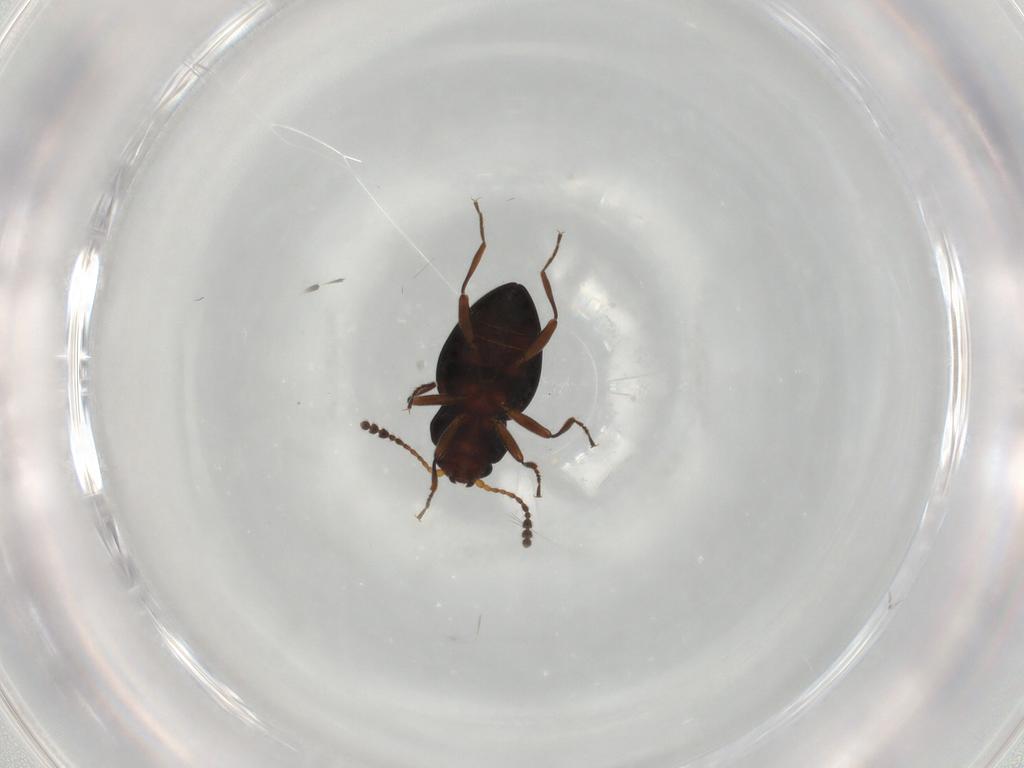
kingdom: Animalia
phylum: Arthropoda
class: Insecta
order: Coleoptera
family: Erotylidae
